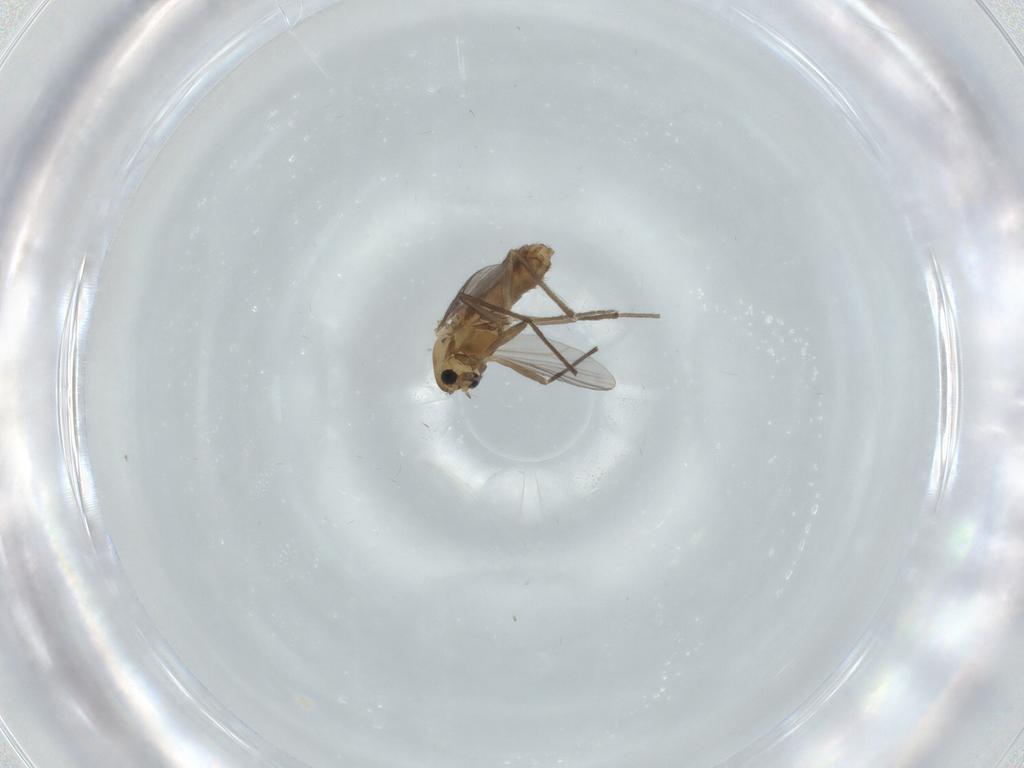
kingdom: Animalia
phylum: Arthropoda
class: Insecta
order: Diptera
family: Chironomidae
